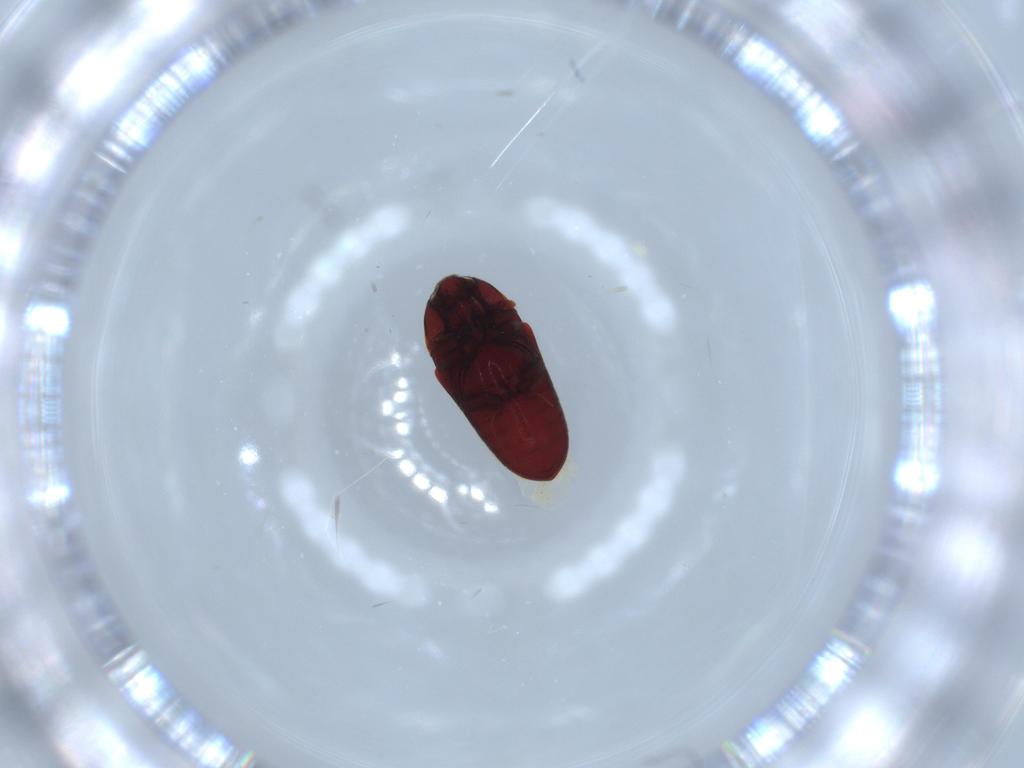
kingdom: Animalia
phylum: Arthropoda
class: Insecta
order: Coleoptera
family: Throscidae
